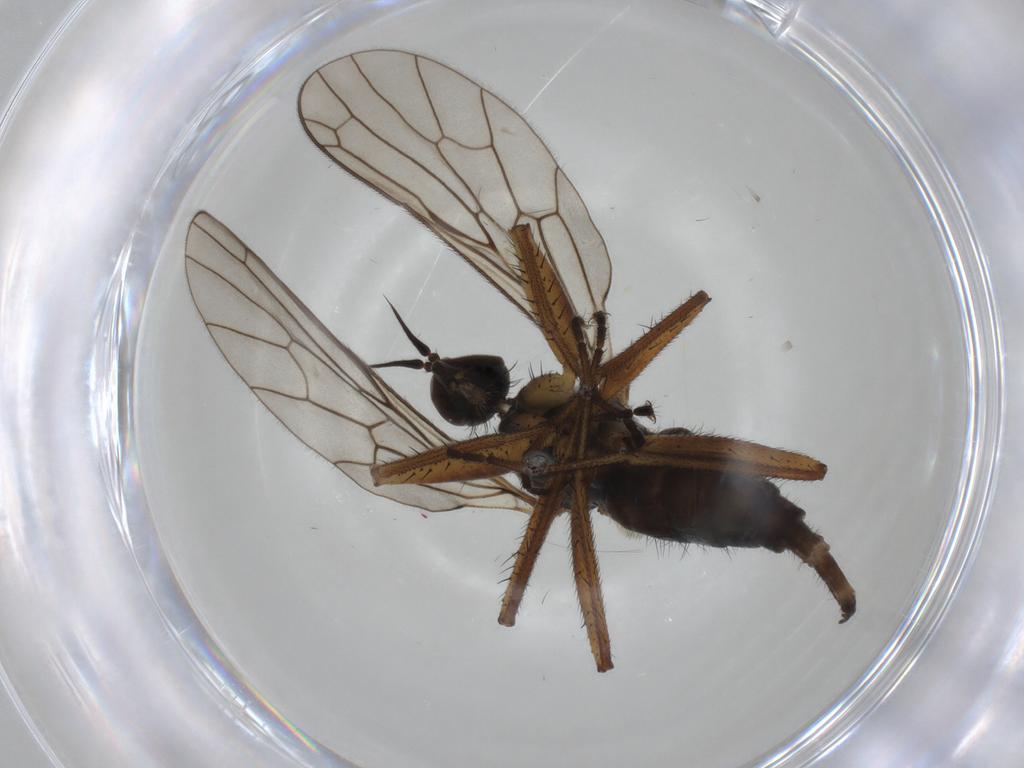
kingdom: Animalia
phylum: Arthropoda
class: Insecta
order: Diptera
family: Chironomidae
